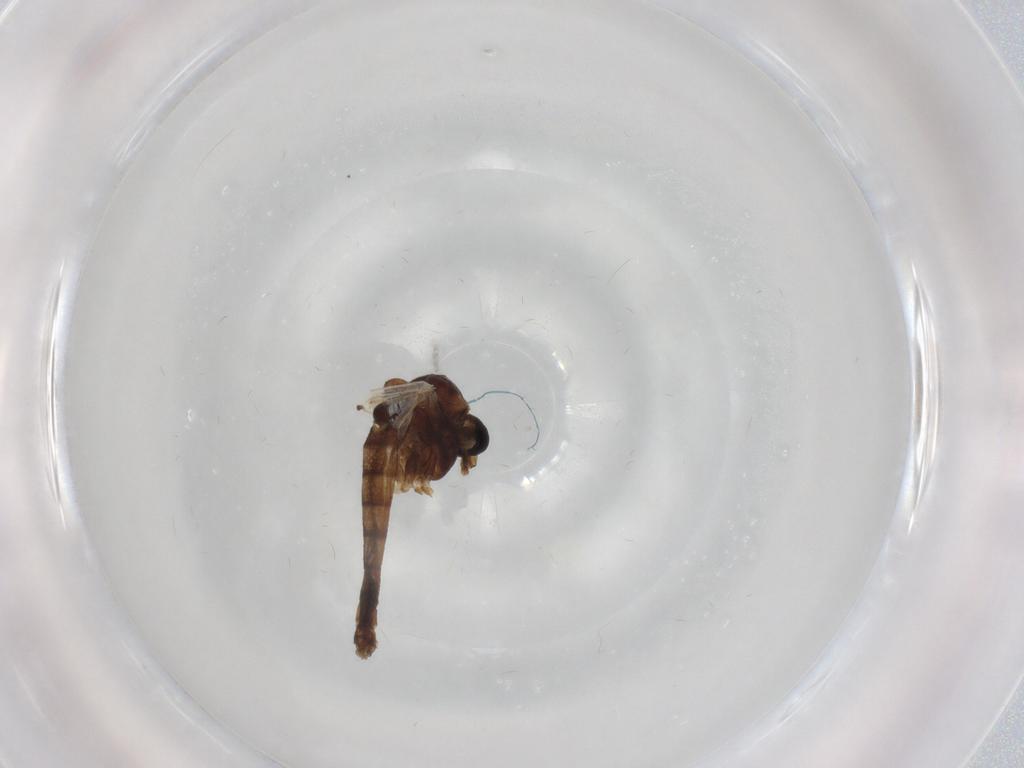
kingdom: Animalia
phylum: Arthropoda
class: Insecta
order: Diptera
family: Chironomidae
